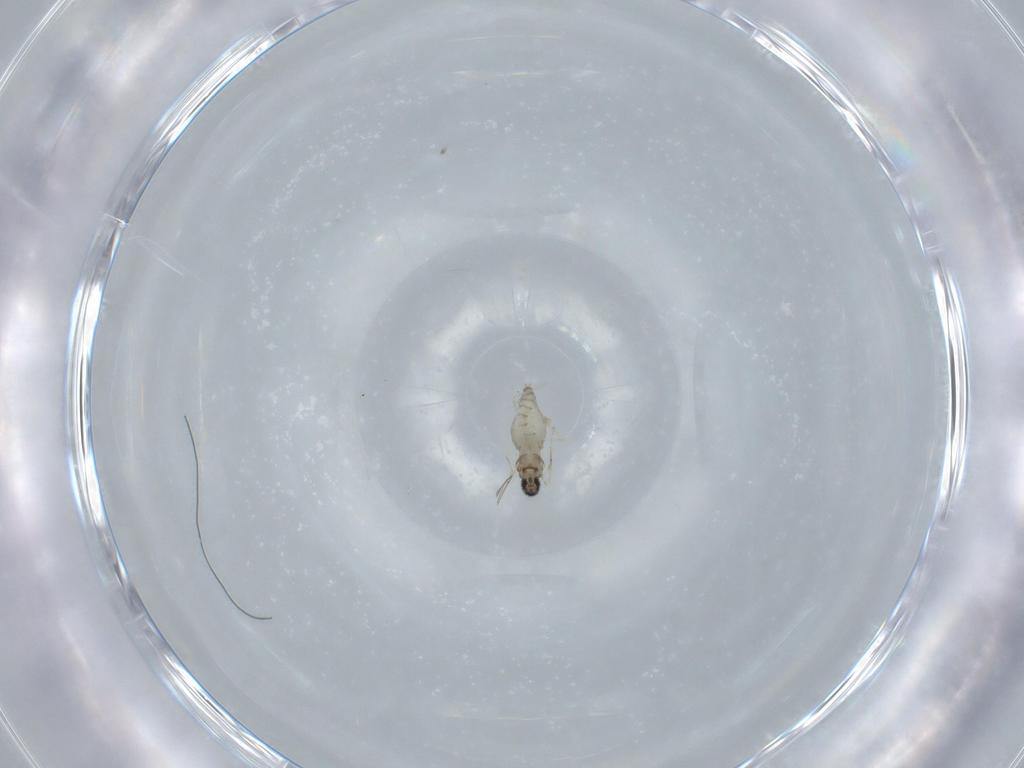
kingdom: Animalia
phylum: Arthropoda
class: Insecta
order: Diptera
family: Cecidomyiidae
